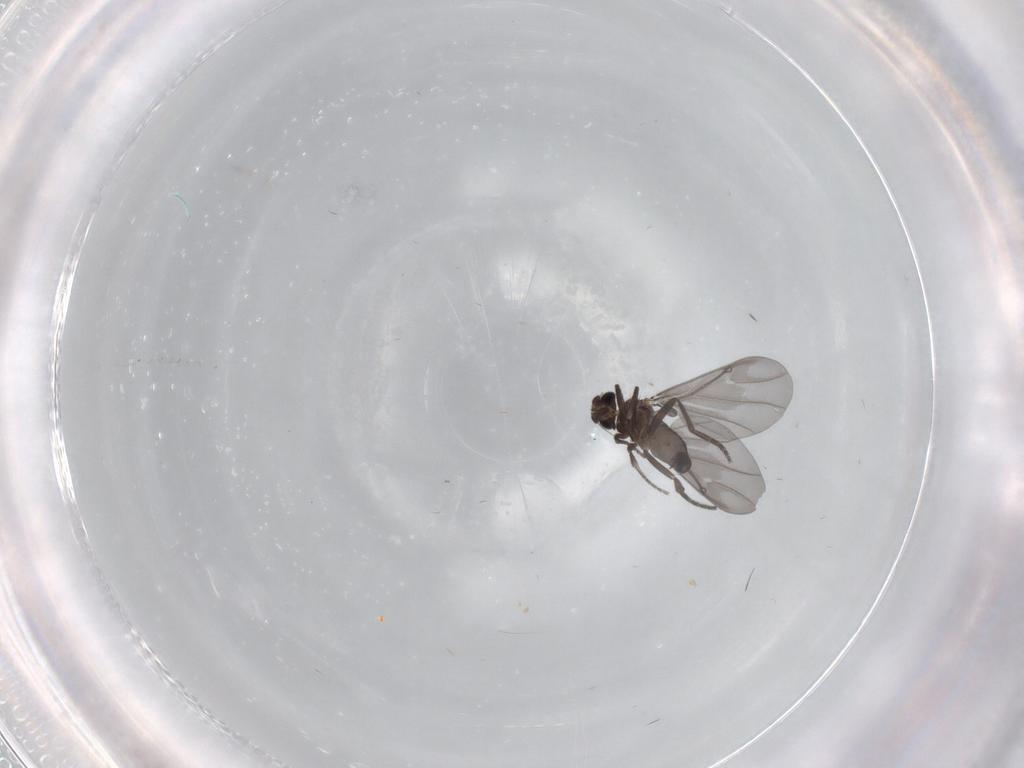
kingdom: Animalia
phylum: Arthropoda
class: Insecta
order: Diptera
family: Phoridae
